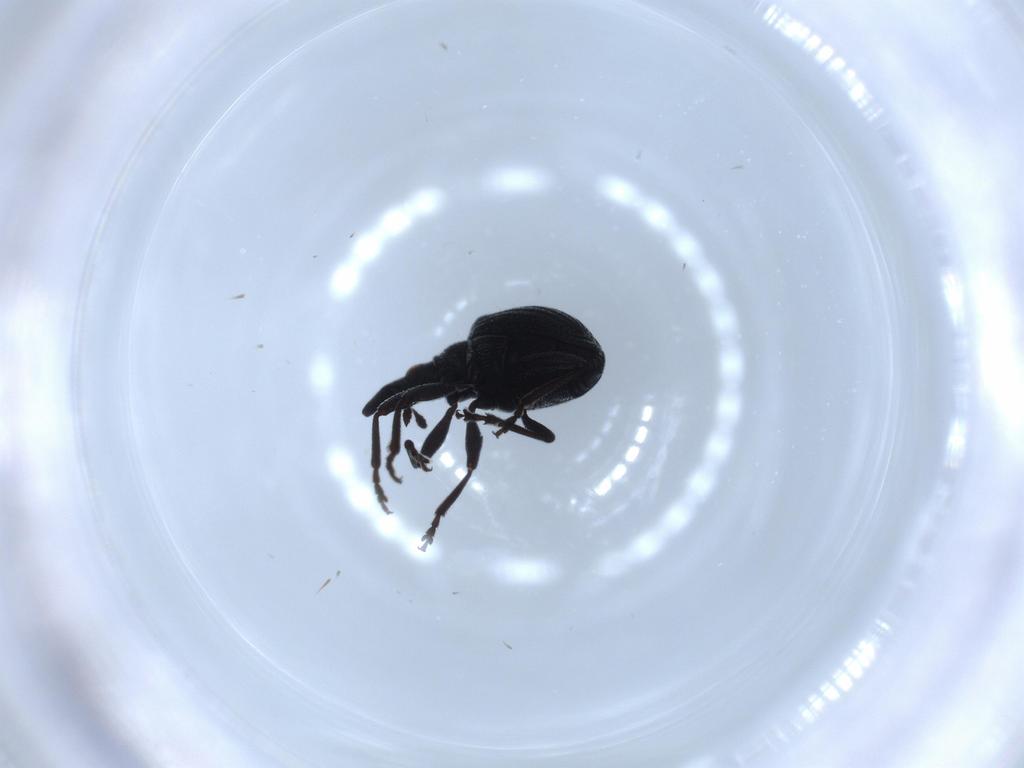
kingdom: Animalia
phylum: Arthropoda
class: Insecta
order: Coleoptera
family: Brentidae
